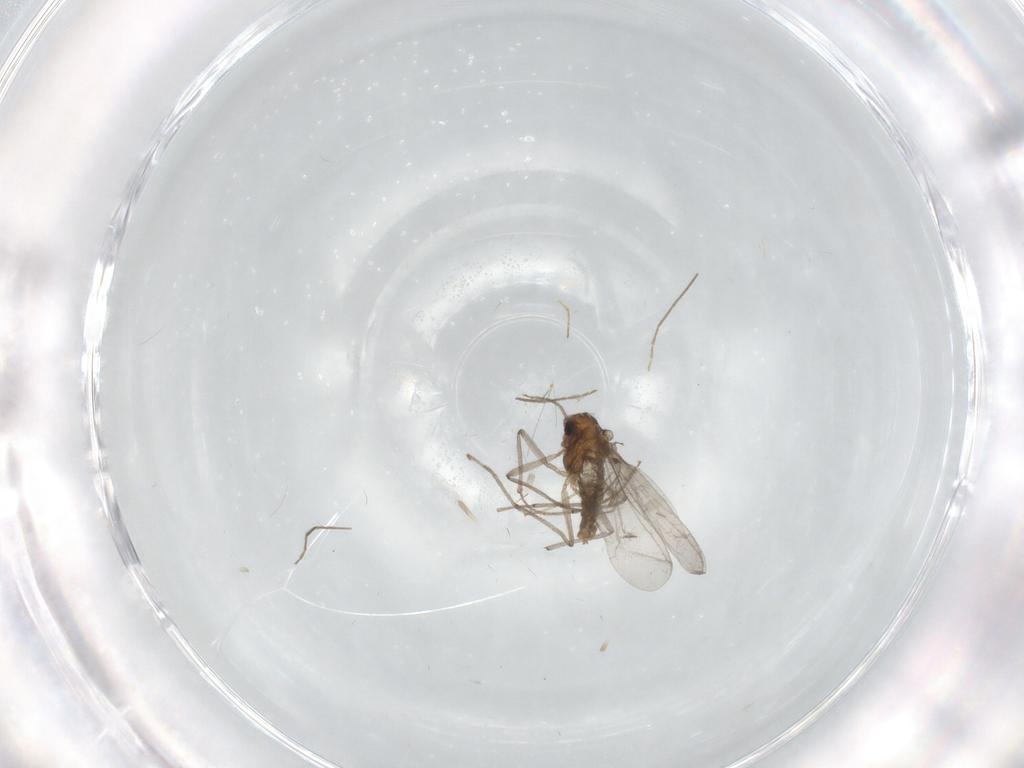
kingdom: Animalia
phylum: Arthropoda
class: Insecta
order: Diptera
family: Chironomidae
